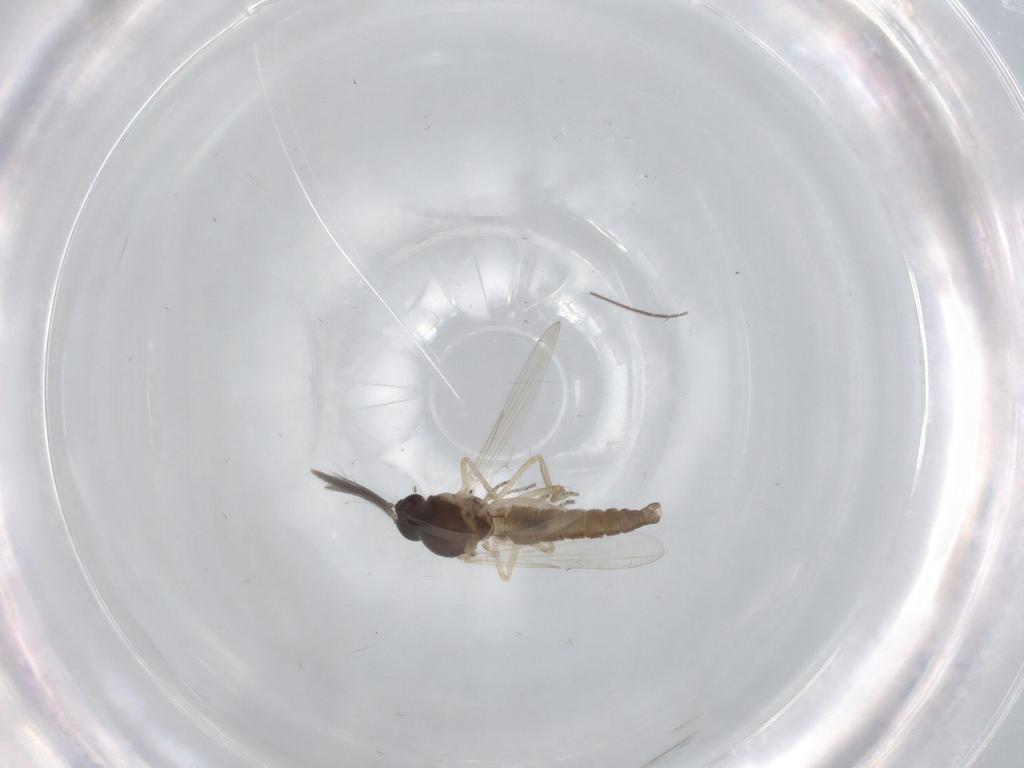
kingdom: Animalia
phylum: Arthropoda
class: Insecta
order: Diptera
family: Ceratopogonidae
